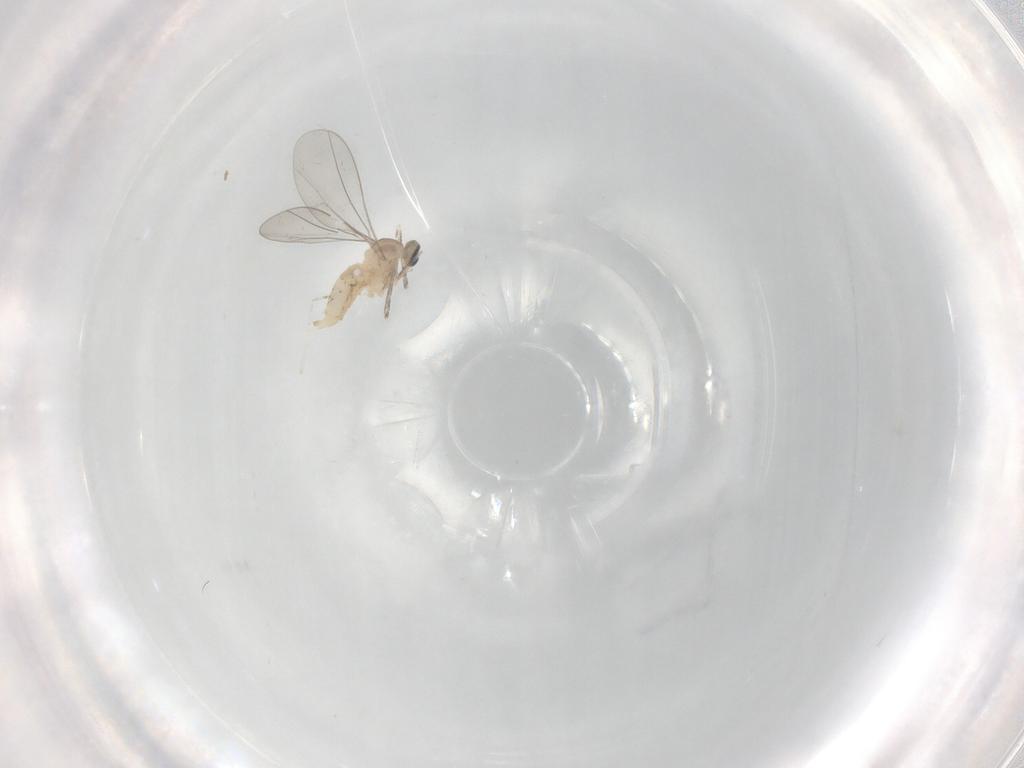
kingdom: Animalia
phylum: Arthropoda
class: Insecta
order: Diptera
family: Cecidomyiidae
